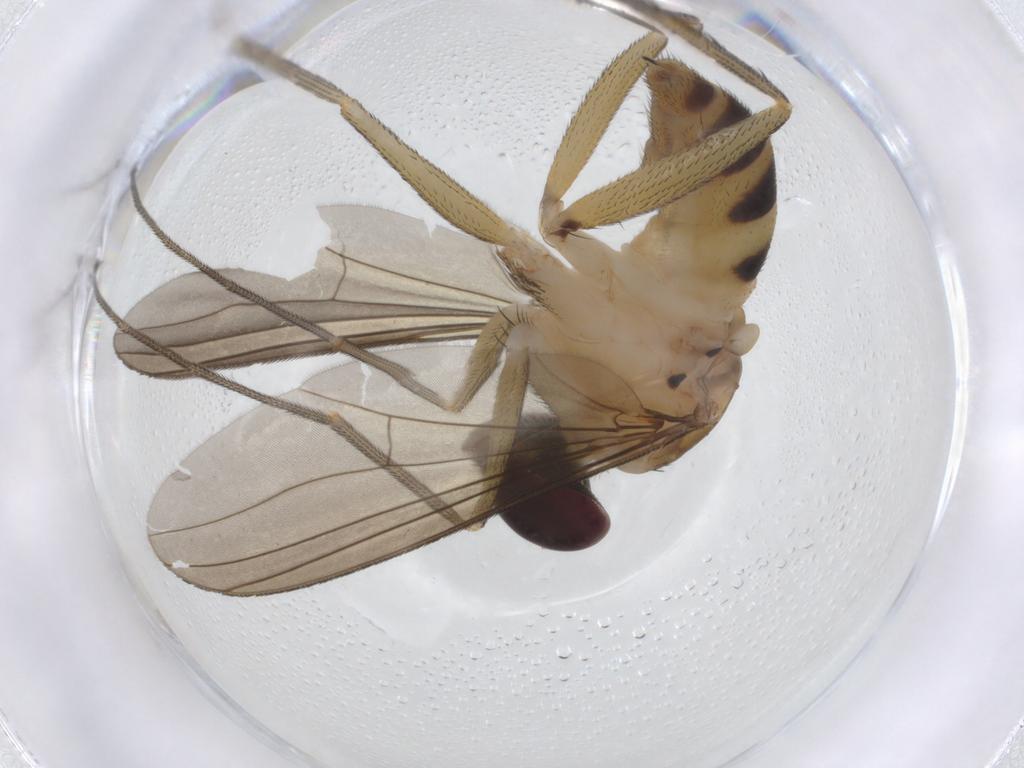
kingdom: Animalia
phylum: Arthropoda
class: Insecta
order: Diptera
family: Dolichopodidae
